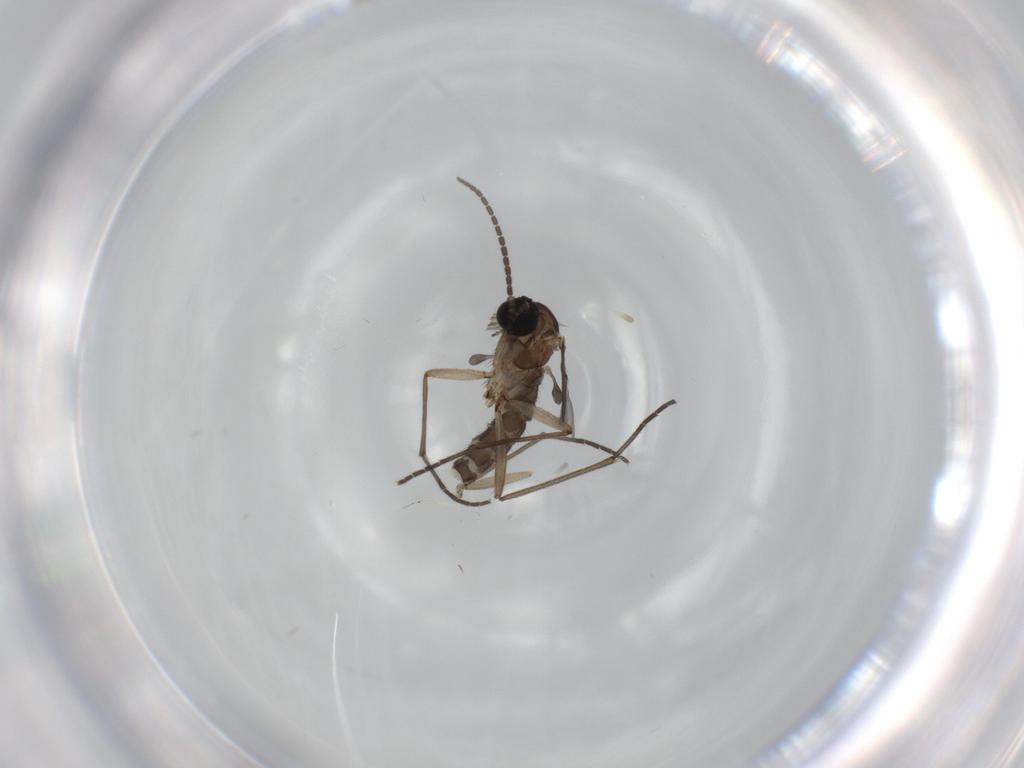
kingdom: Animalia
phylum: Arthropoda
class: Insecta
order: Diptera
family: Sciaridae
